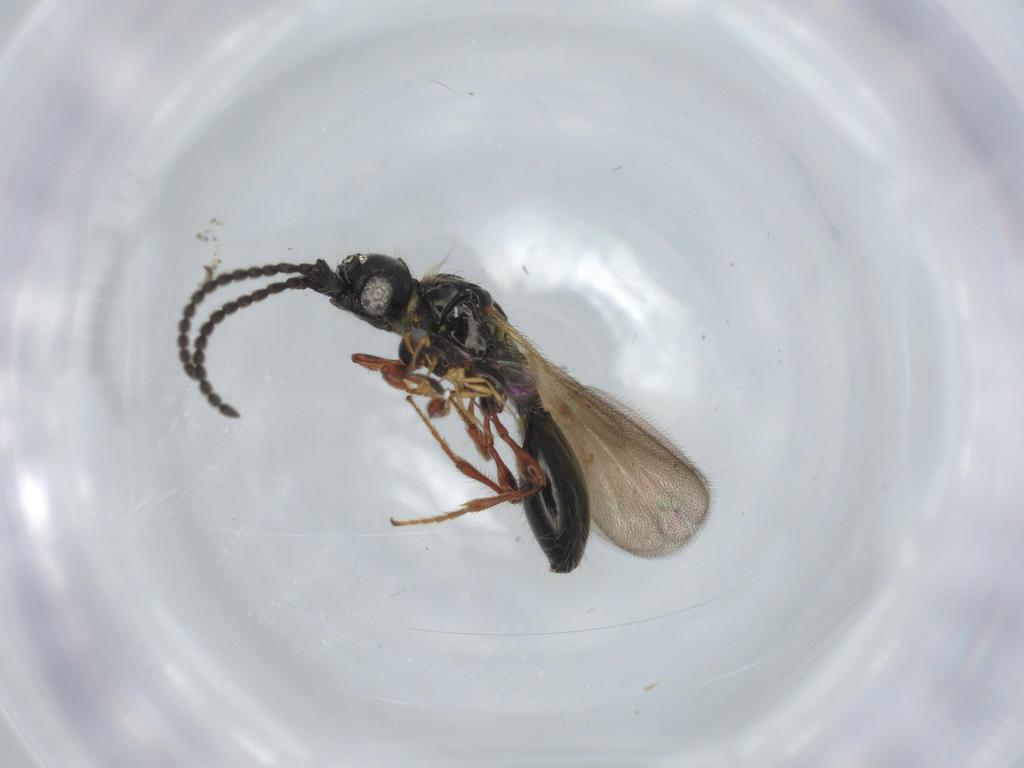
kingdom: Animalia
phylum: Arthropoda
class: Insecta
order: Hymenoptera
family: Scelionidae
